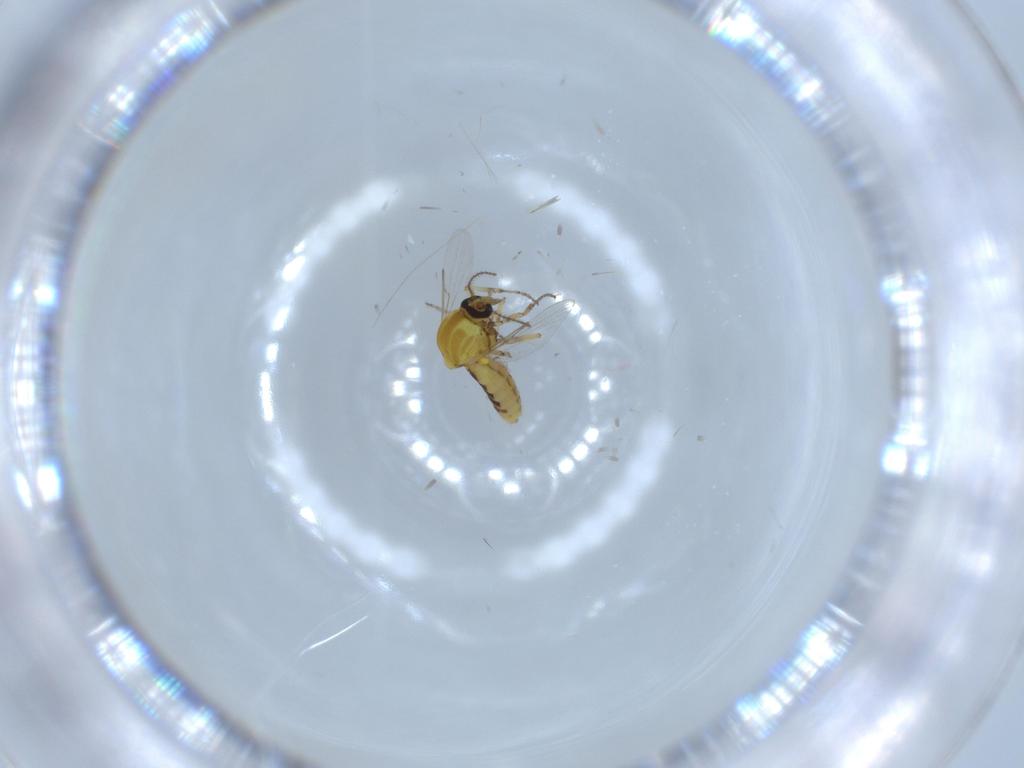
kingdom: Animalia
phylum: Arthropoda
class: Insecta
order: Diptera
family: Ceratopogonidae
